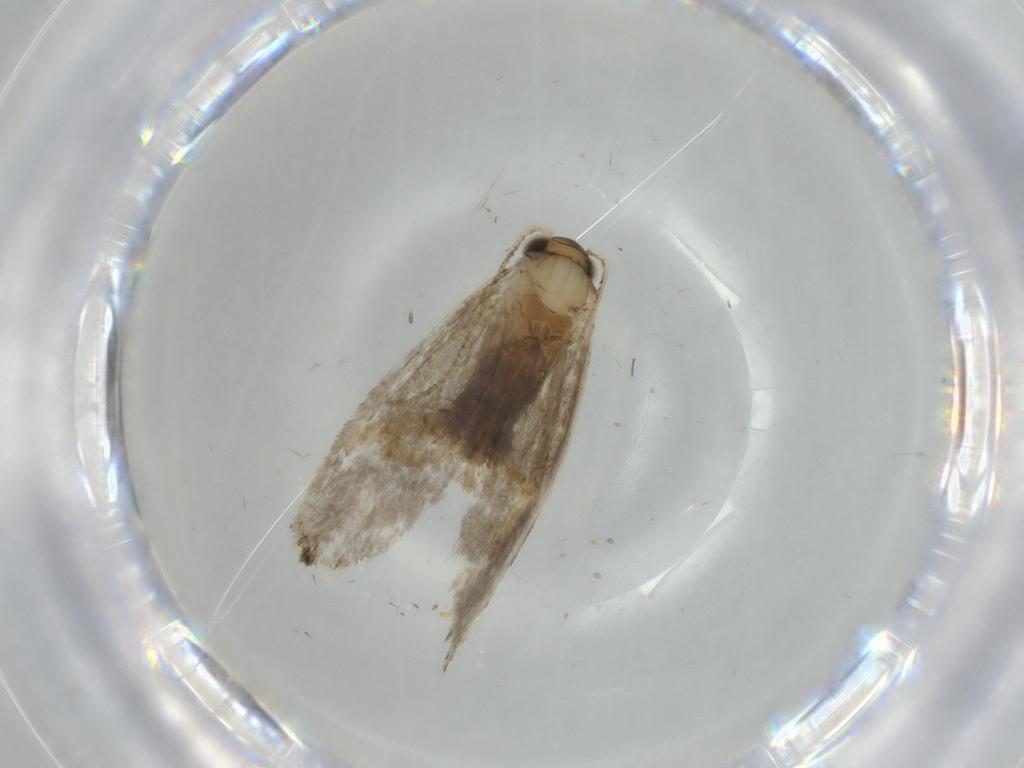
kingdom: Animalia
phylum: Arthropoda
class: Insecta
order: Lepidoptera
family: Tineidae
